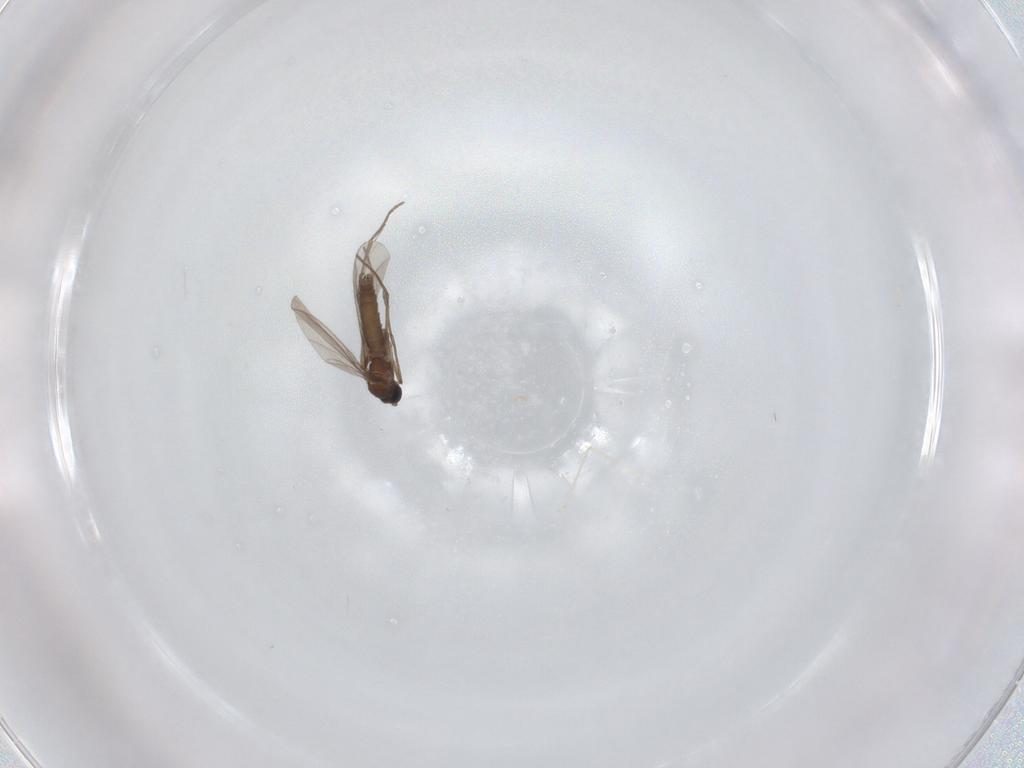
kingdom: Animalia
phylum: Arthropoda
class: Insecta
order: Diptera
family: Sciaridae
